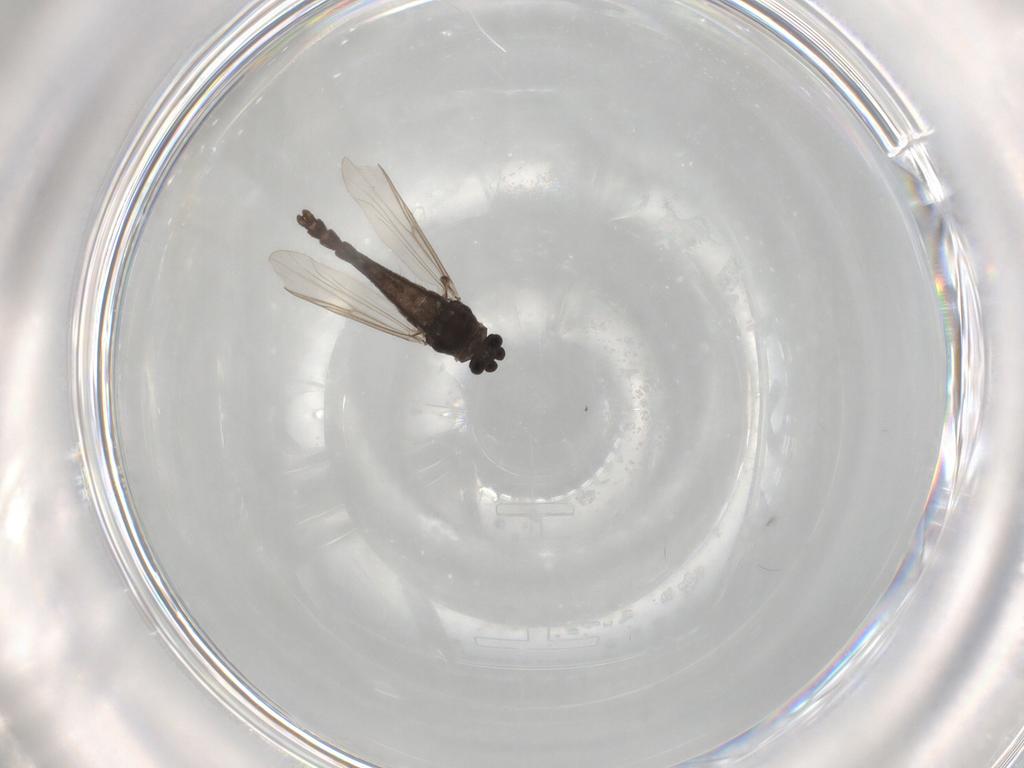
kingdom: Animalia
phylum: Arthropoda
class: Insecta
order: Diptera
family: Chironomidae
